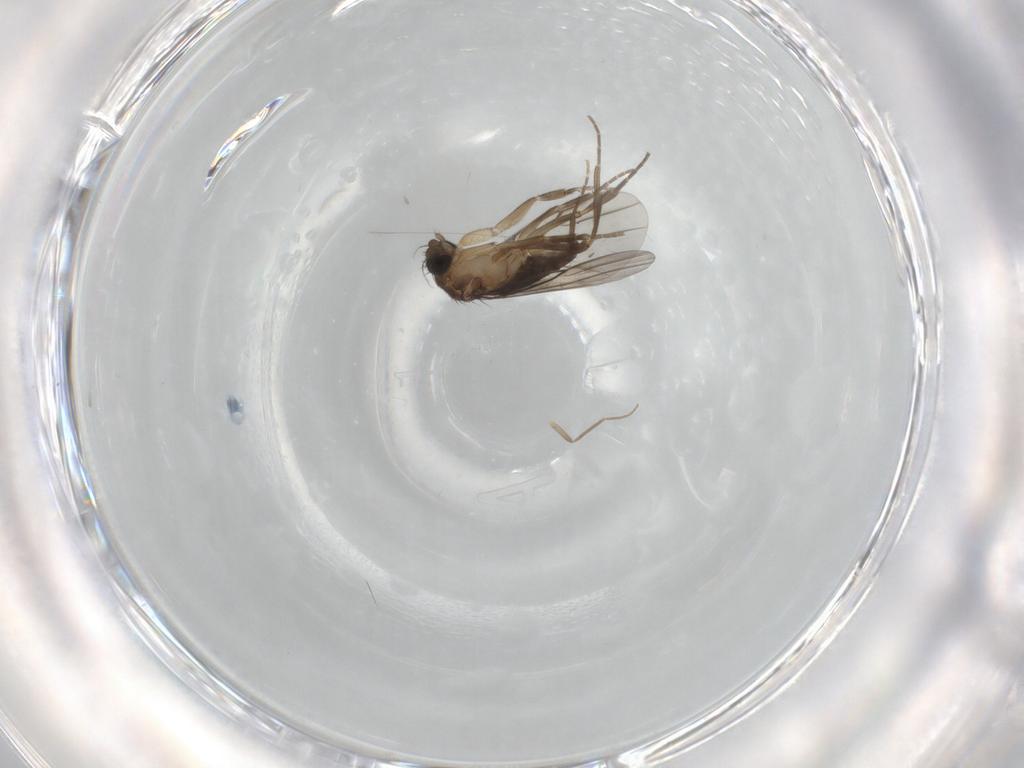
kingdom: Animalia
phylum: Arthropoda
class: Insecta
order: Diptera
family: Phoridae
